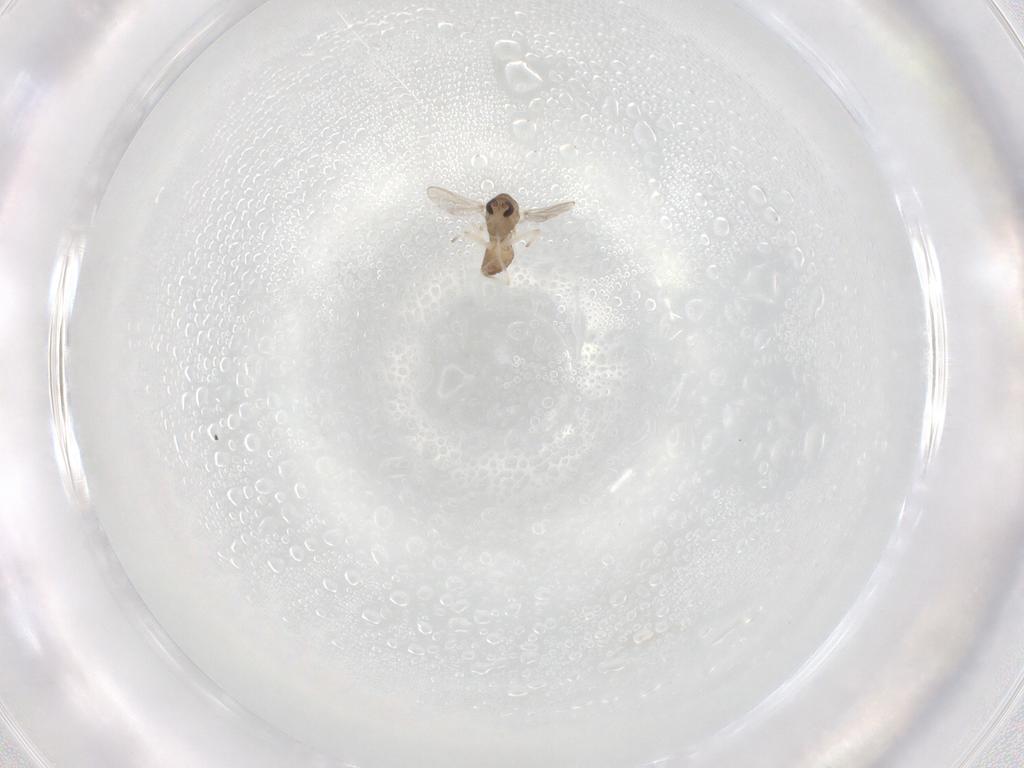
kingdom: Animalia
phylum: Arthropoda
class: Insecta
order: Diptera
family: Chironomidae
